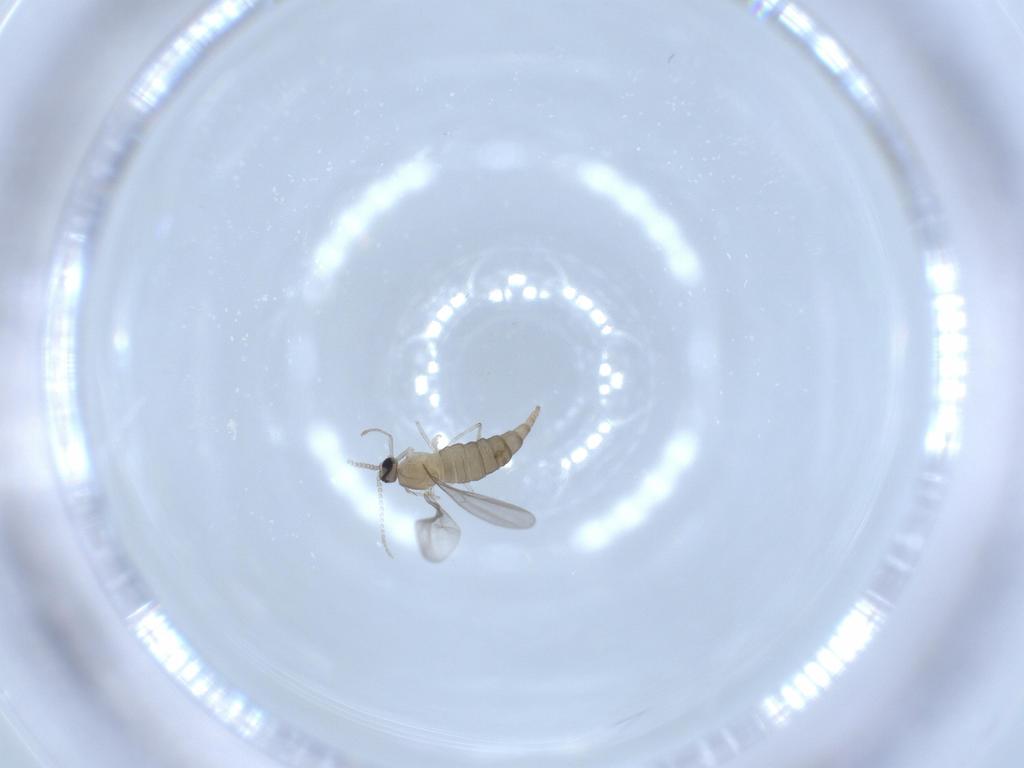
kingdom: Animalia
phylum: Arthropoda
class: Insecta
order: Diptera
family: Cecidomyiidae
